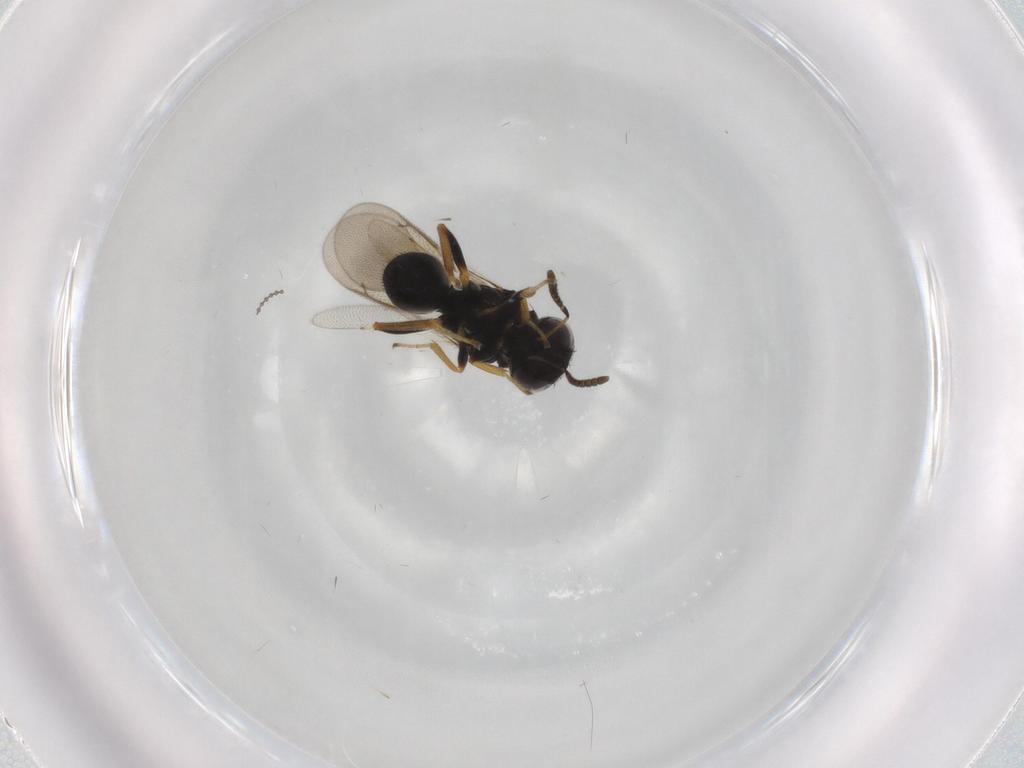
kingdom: Animalia
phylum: Arthropoda
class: Insecta
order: Hymenoptera
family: Pteromalidae
